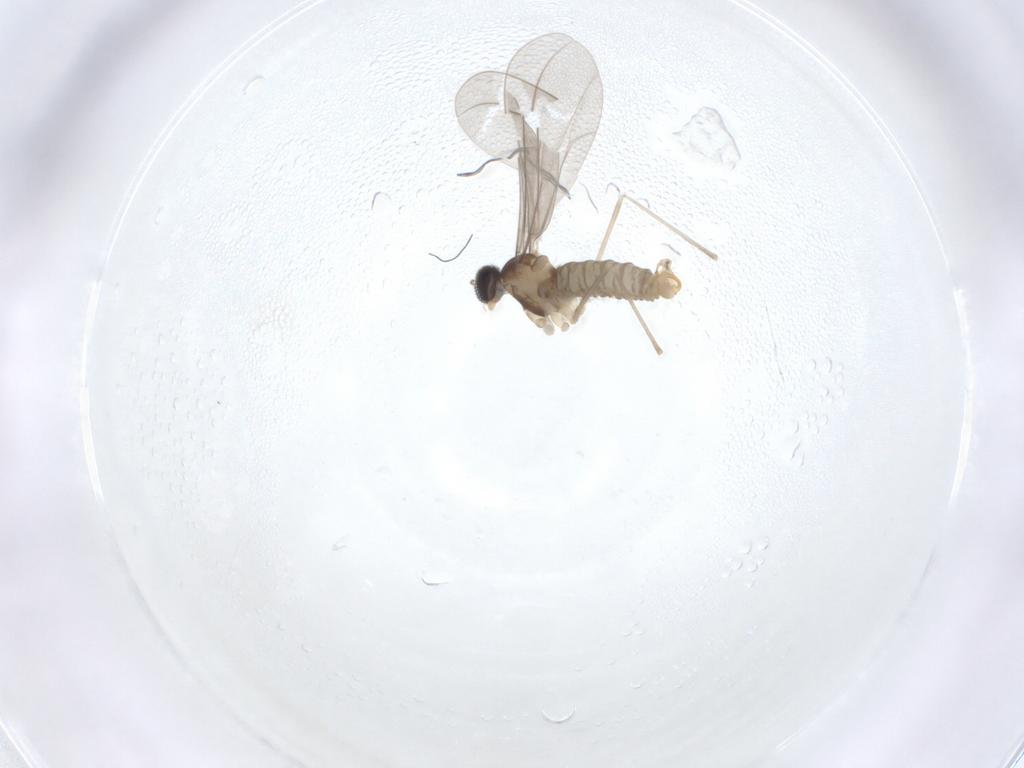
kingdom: Animalia
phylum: Arthropoda
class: Insecta
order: Diptera
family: Cecidomyiidae
